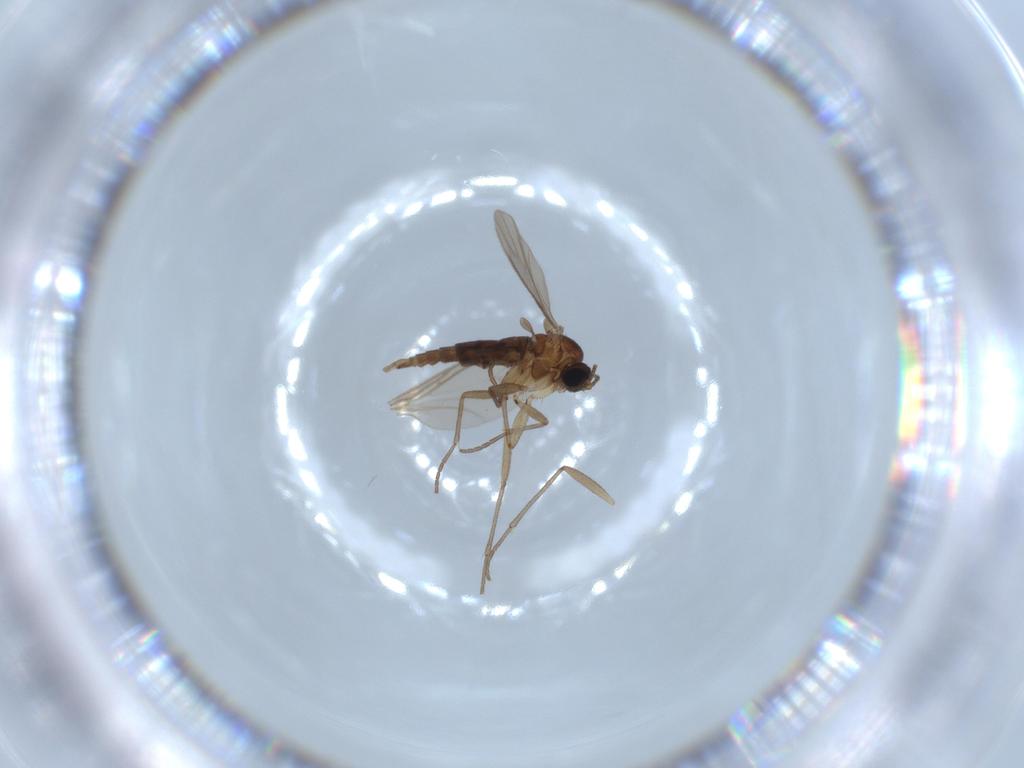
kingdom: Animalia
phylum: Arthropoda
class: Insecta
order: Diptera
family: Sciaridae
